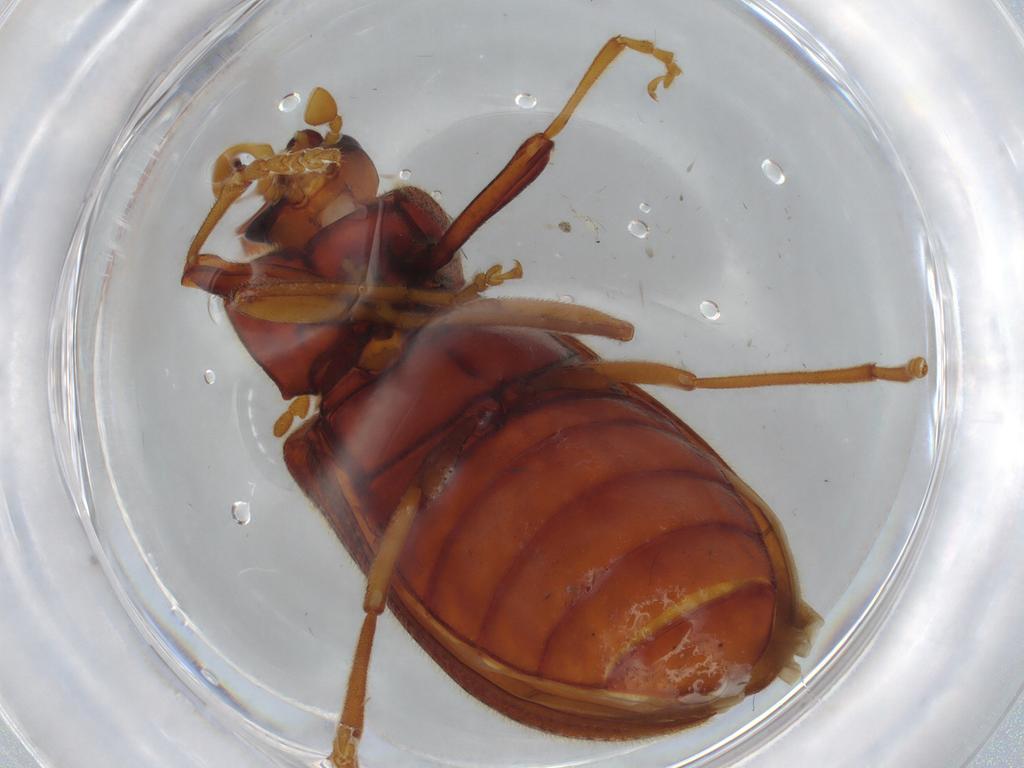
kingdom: Animalia
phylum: Arthropoda
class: Insecta
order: Coleoptera
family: Cerophytidae
